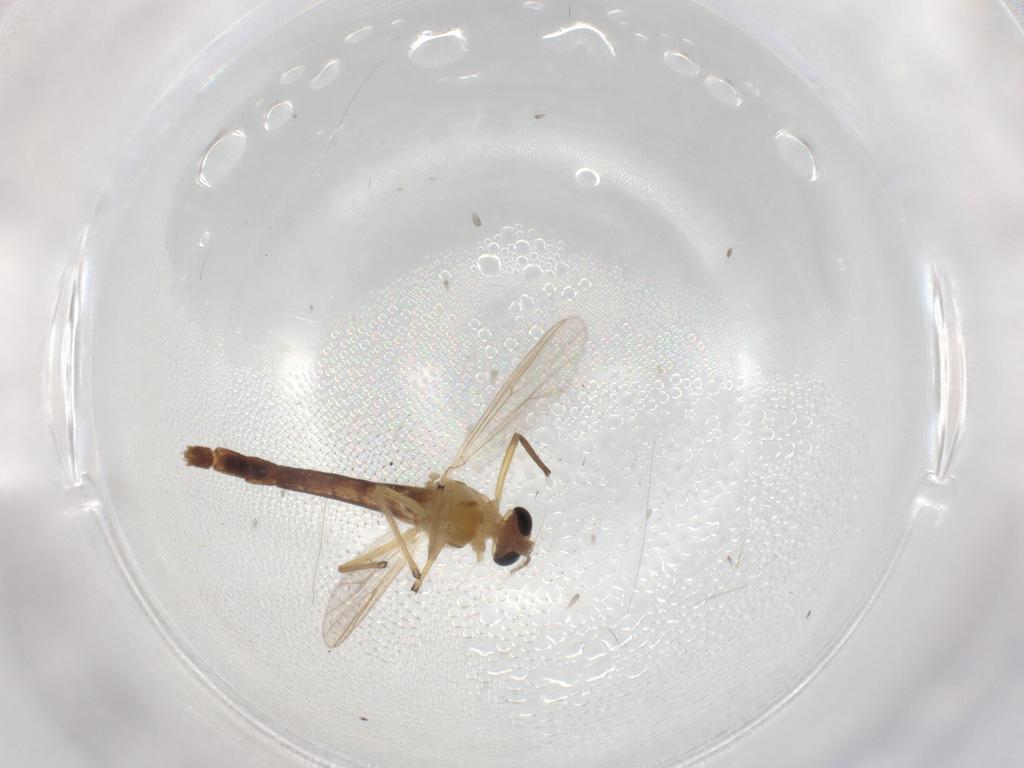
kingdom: Animalia
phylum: Arthropoda
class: Insecta
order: Diptera
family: Chironomidae
